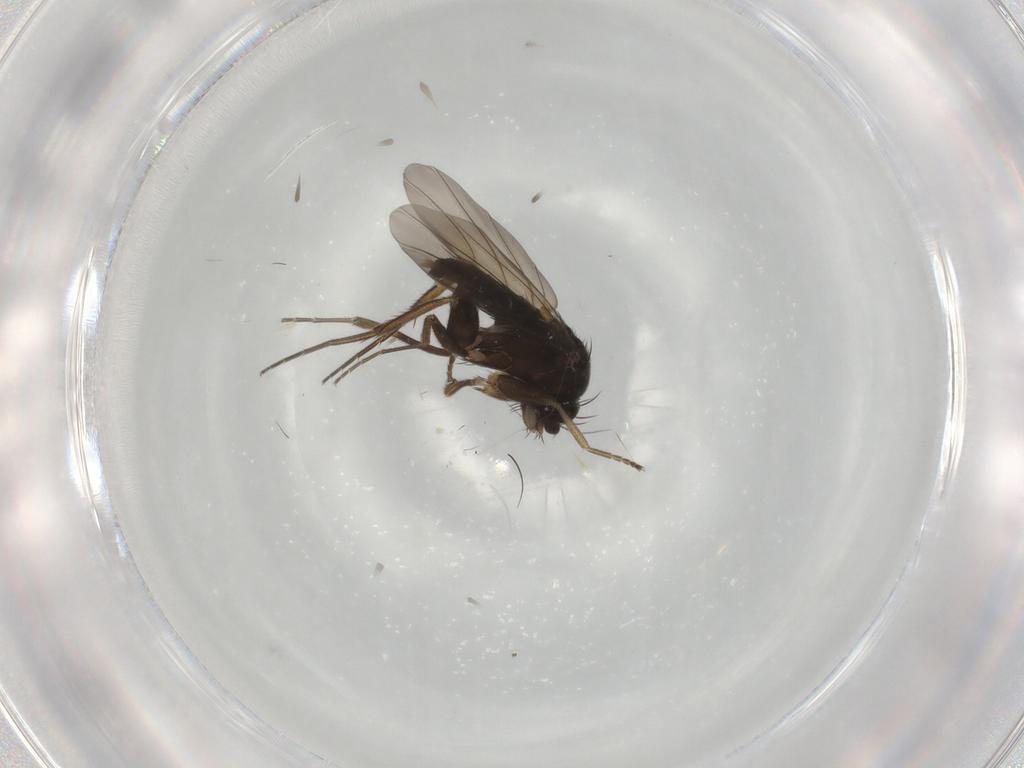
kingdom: Animalia
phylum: Arthropoda
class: Insecta
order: Diptera
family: Phoridae
